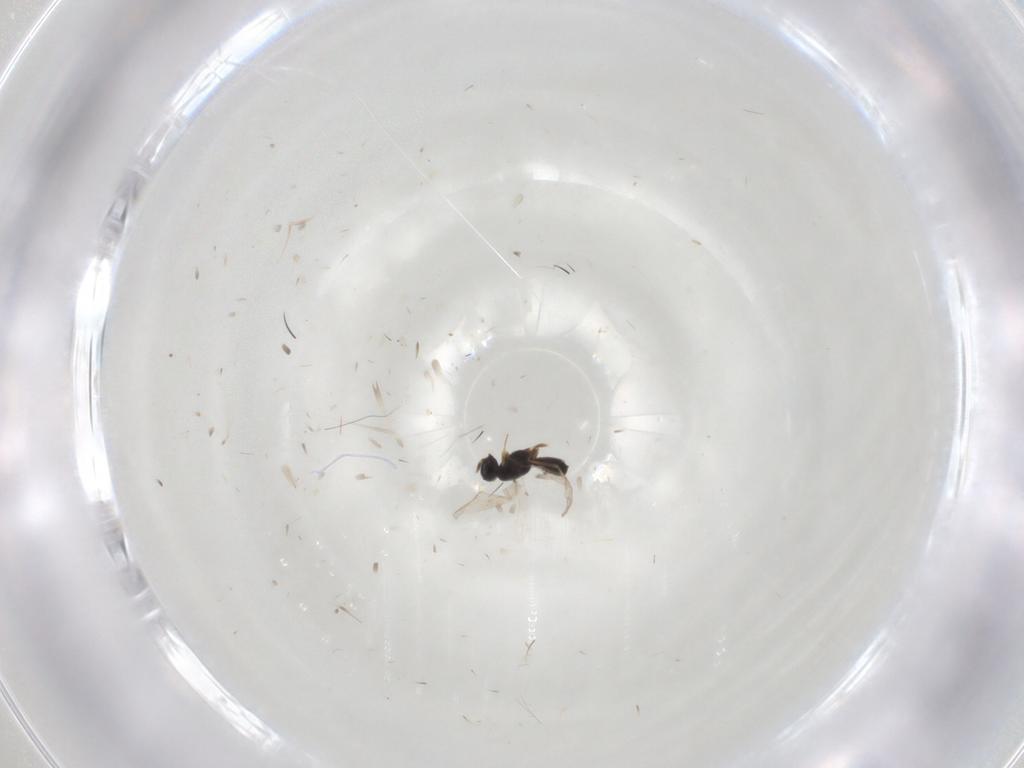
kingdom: Animalia
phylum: Arthropoda
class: Insecta
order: Hymenoptera
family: Scelionidae
